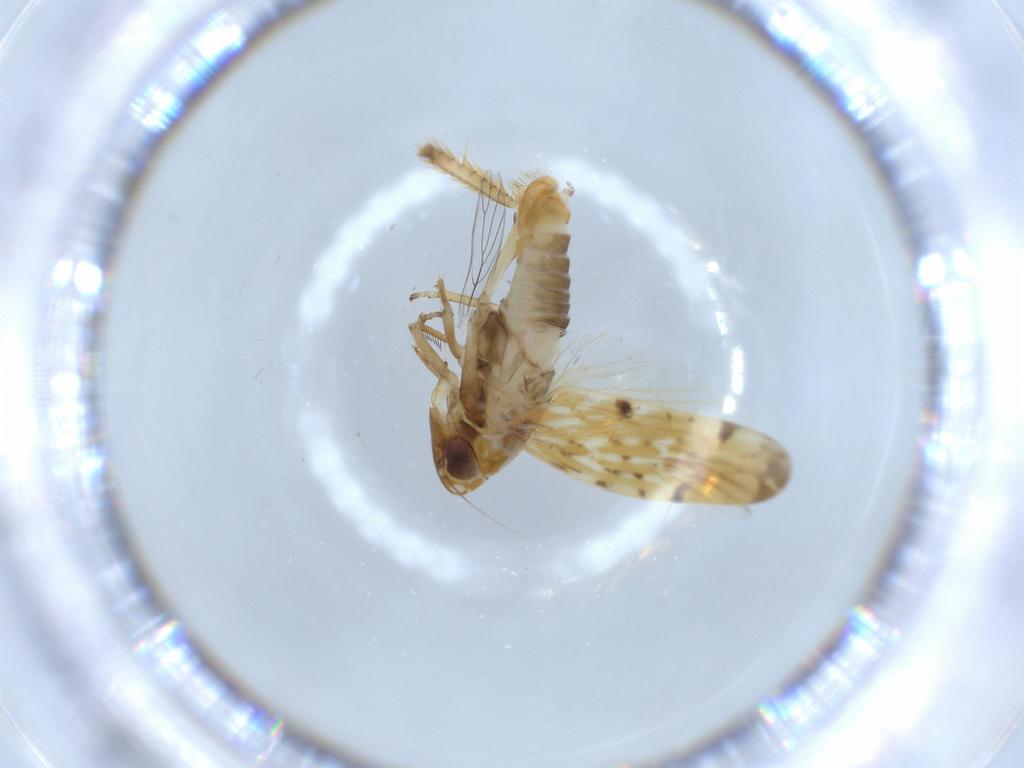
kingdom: Animalia
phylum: Arthropoda
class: Insecta
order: Hemiptera
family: Cicadellidae
